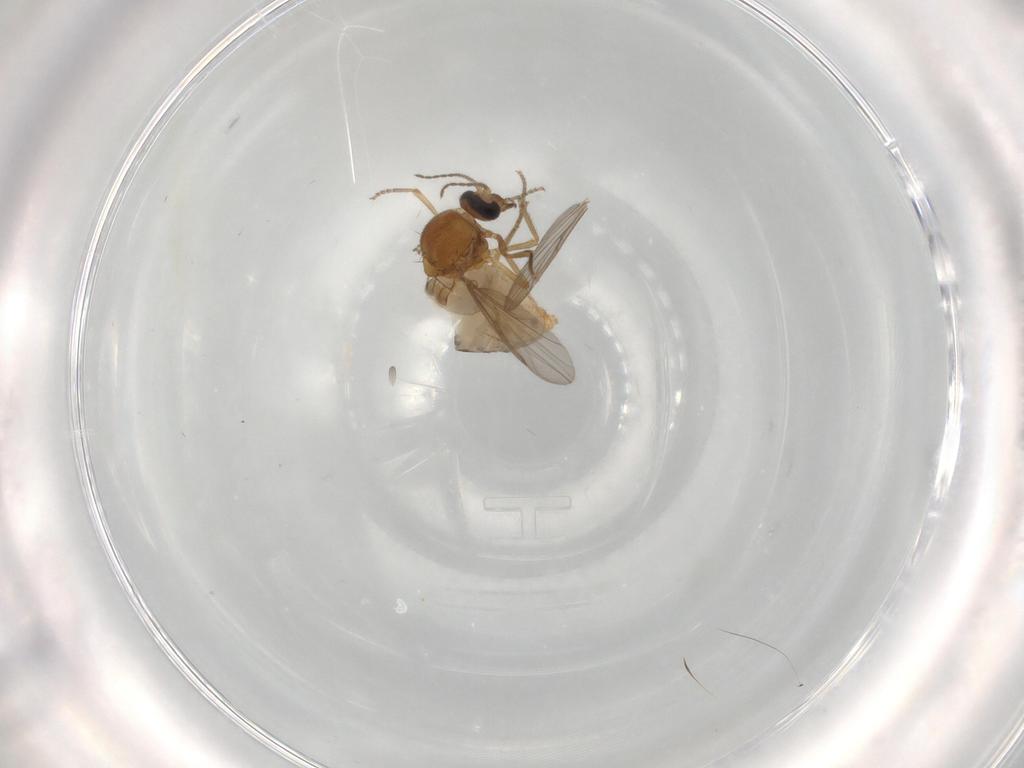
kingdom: Animalia
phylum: Arthropoda
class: Insecta
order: Diptera
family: Ceratopogonidae
